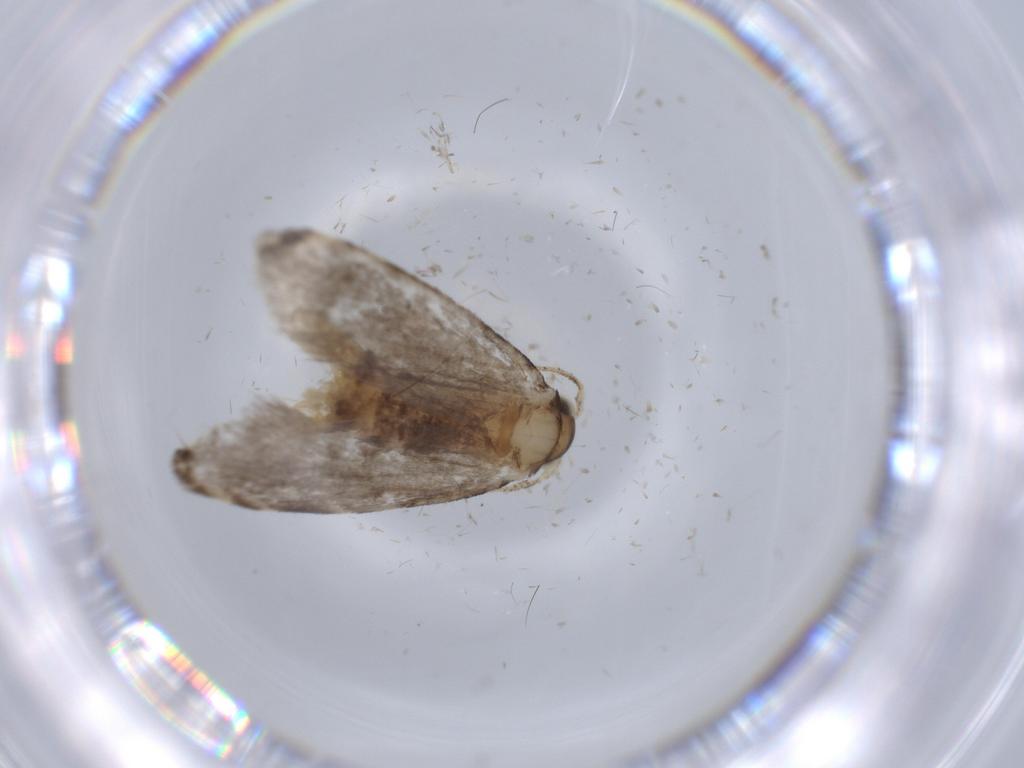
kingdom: Animalia
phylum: Arthropoda
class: Insecta
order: Lepidoptera
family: Tineidae
